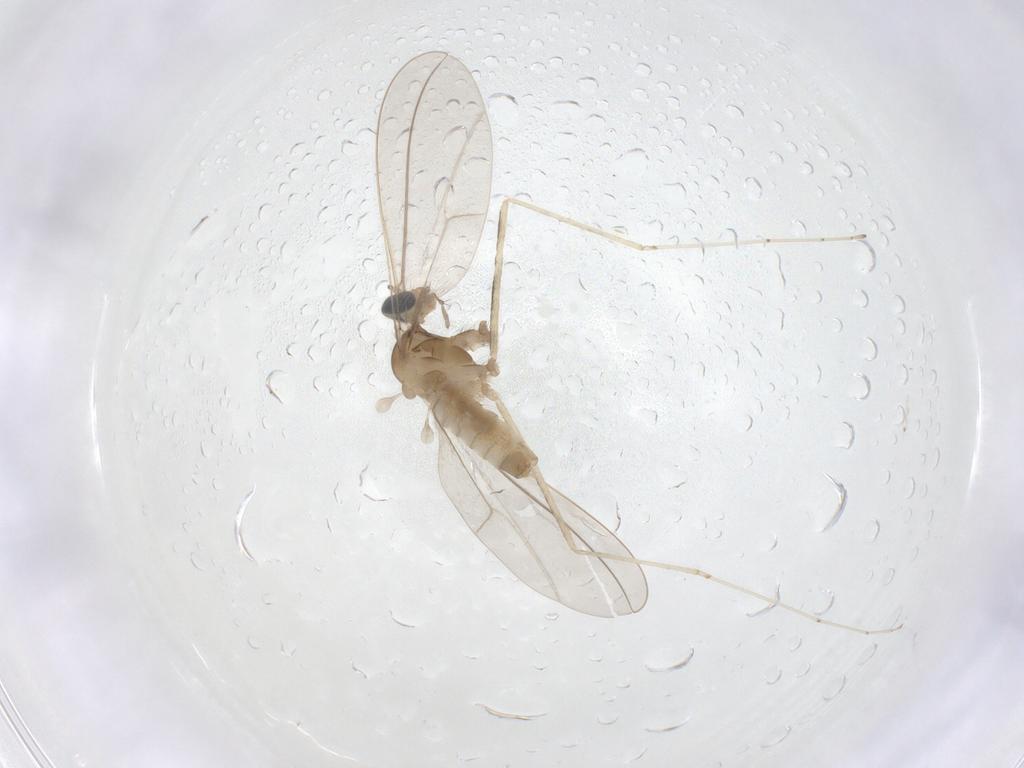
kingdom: Animalia
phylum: Arthropoda
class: Insecta
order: Diptera
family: Cecidomyiidae
